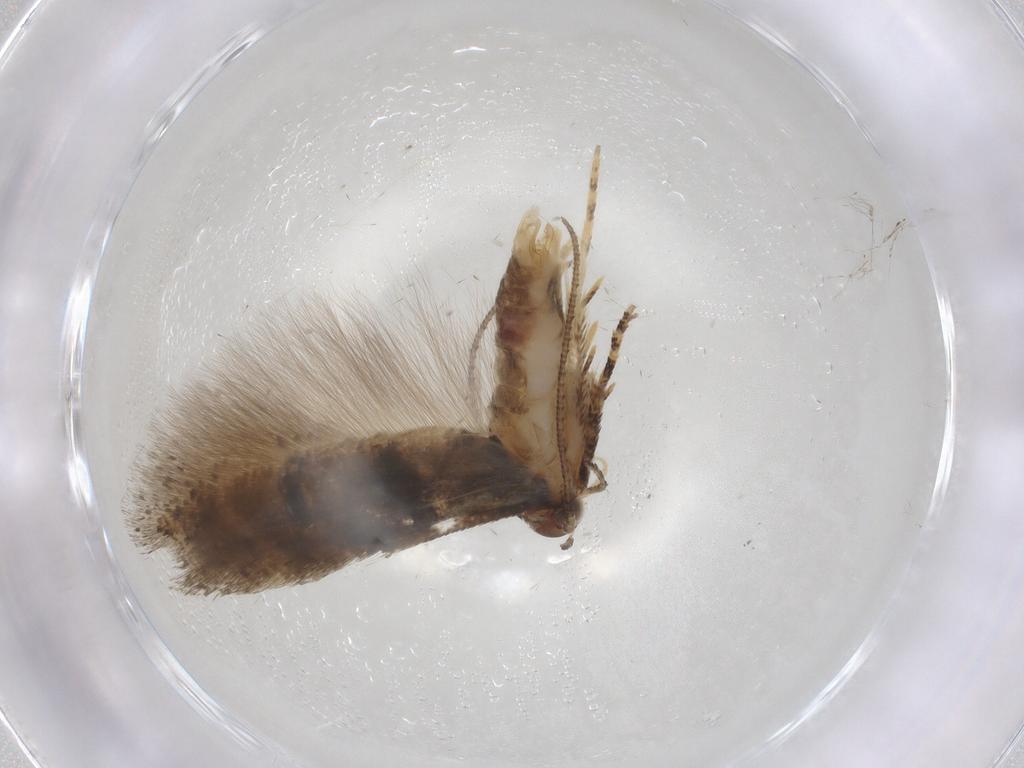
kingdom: Animalia
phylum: Arthropoda
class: Insecta
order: Lepidoptera
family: Gelechiidae
